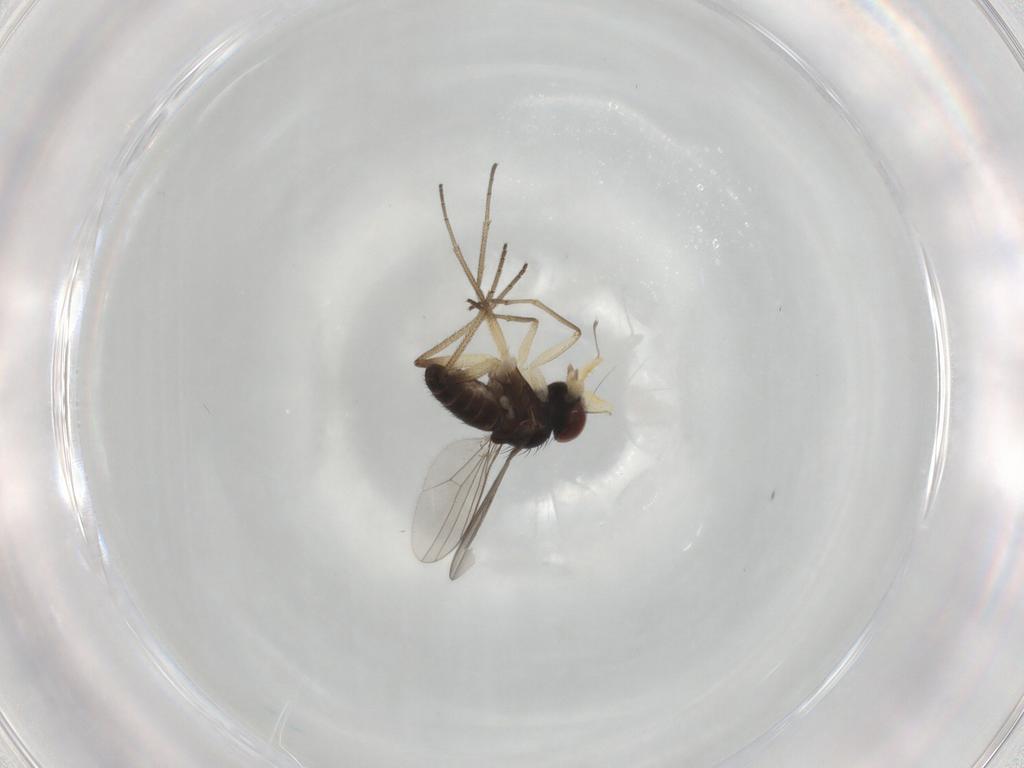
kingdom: Animalia
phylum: Arthropoda
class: Insecta
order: Diptera
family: Dolichopodidae
